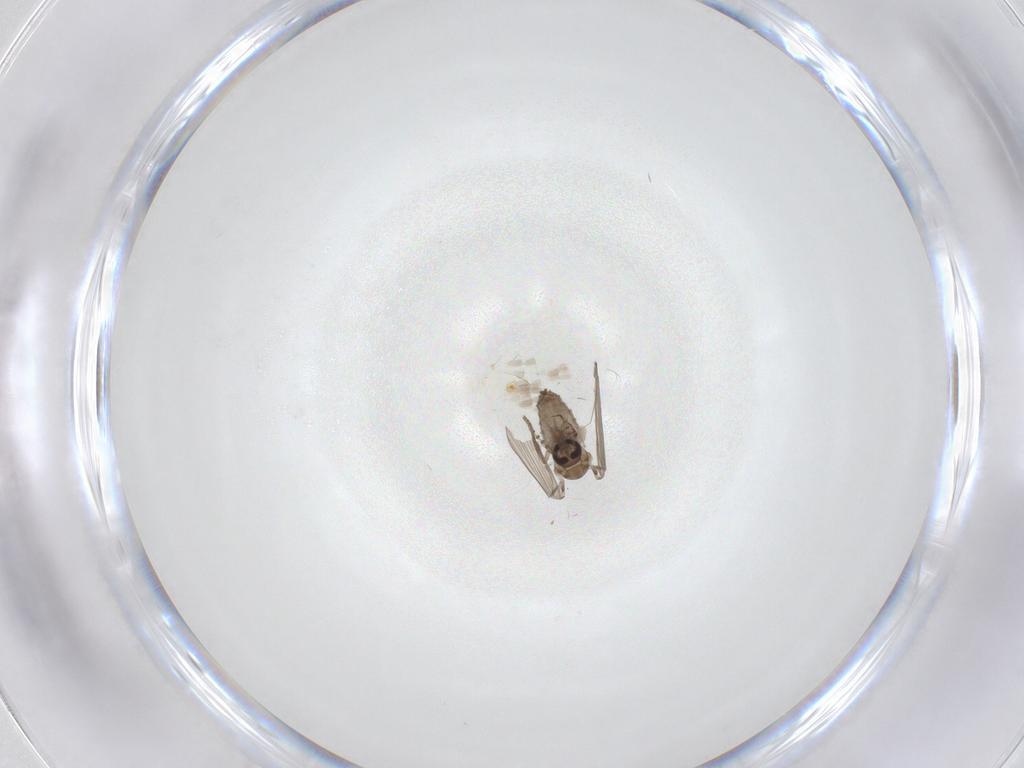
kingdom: Animalia
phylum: Arthropoda
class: Insecta
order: Diptera
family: Psychodidae
